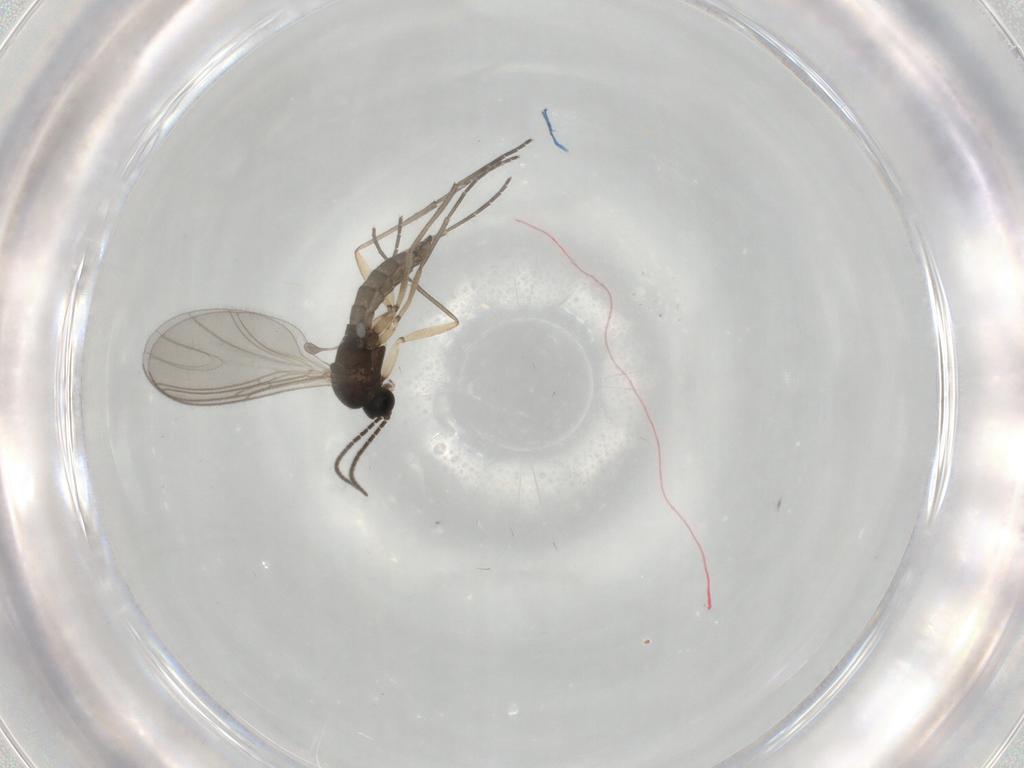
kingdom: Animalia
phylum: Arthropoda
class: Insecta
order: Diptera
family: Sciaridae
